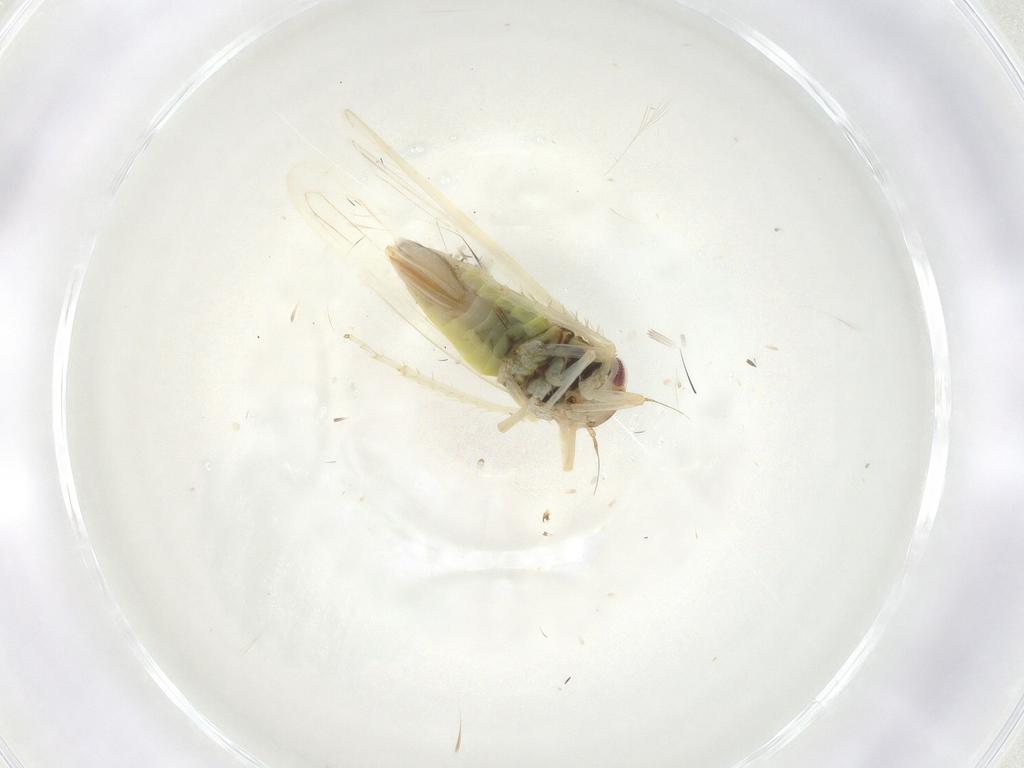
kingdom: Animalia
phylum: Arthropoda
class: Insecta
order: Hemiptera
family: Cicadellidae
